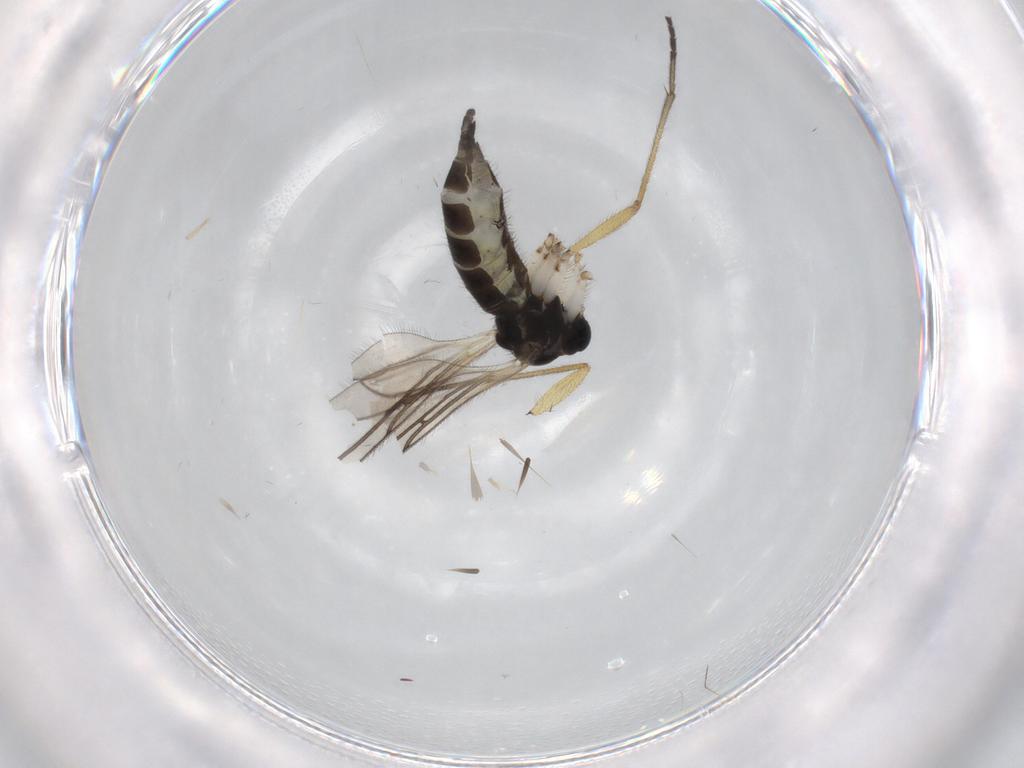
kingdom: Animalia
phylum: Arthropoda
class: Insecta
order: Diptera
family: Sciaridae
